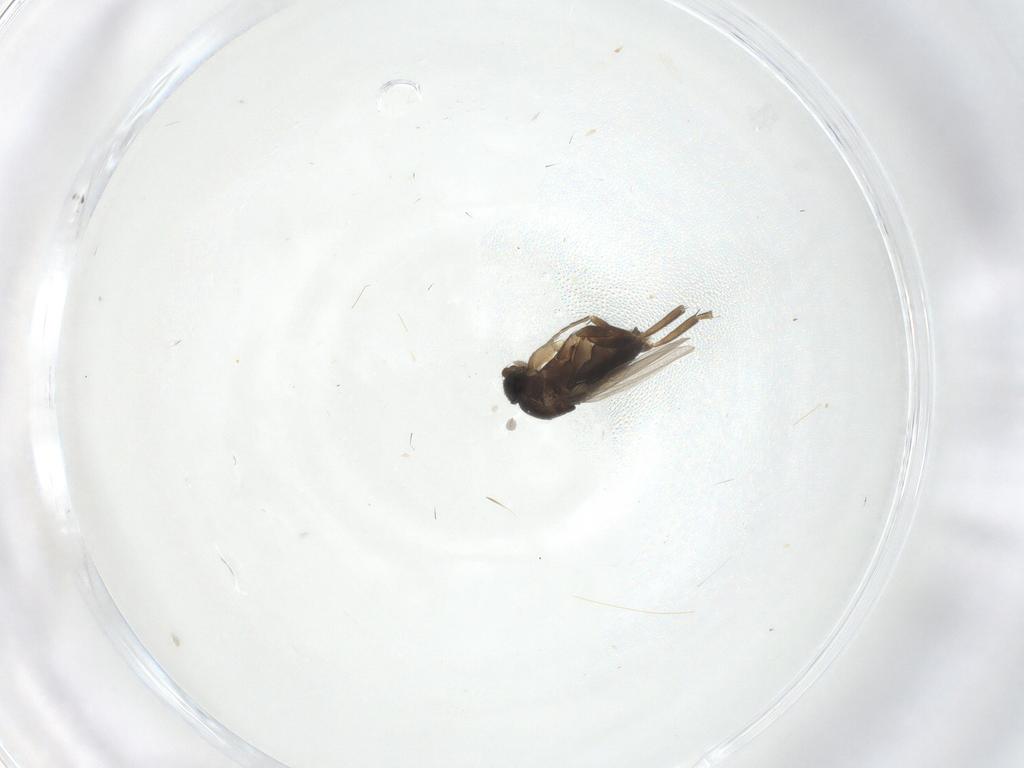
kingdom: Animalia
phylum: Arthropoda
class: Insecta
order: Diptera
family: Phoridae
